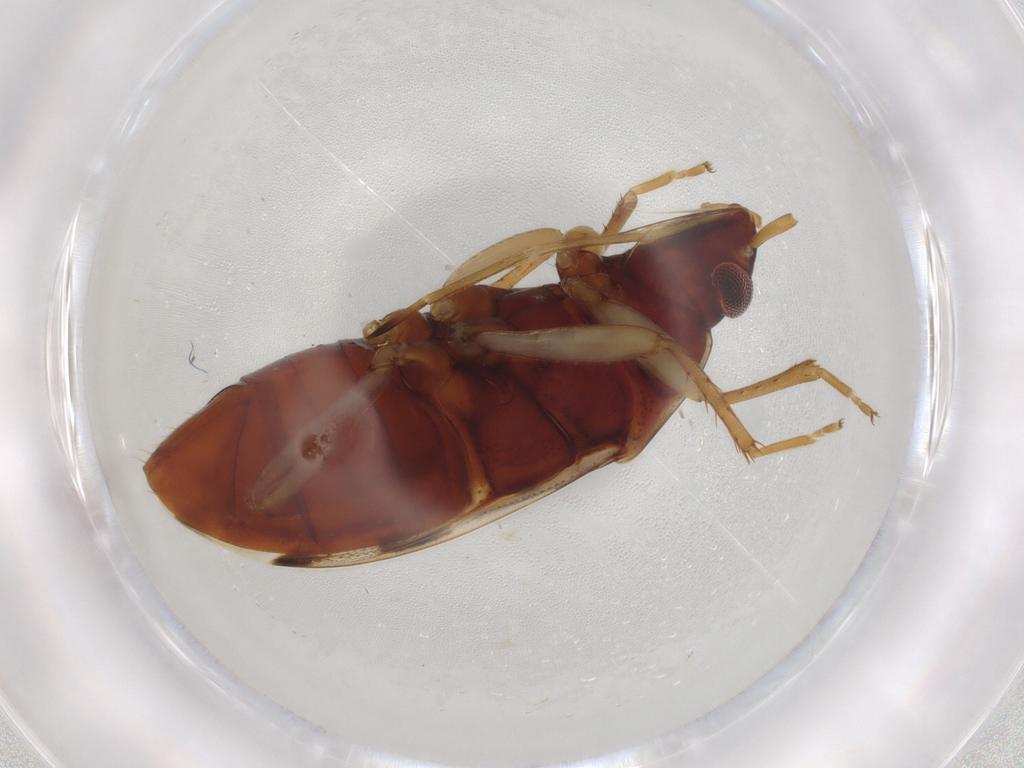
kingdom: Animalia
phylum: Arthropoda
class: Insecta
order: Hemiptera
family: Rhyparochromidae
